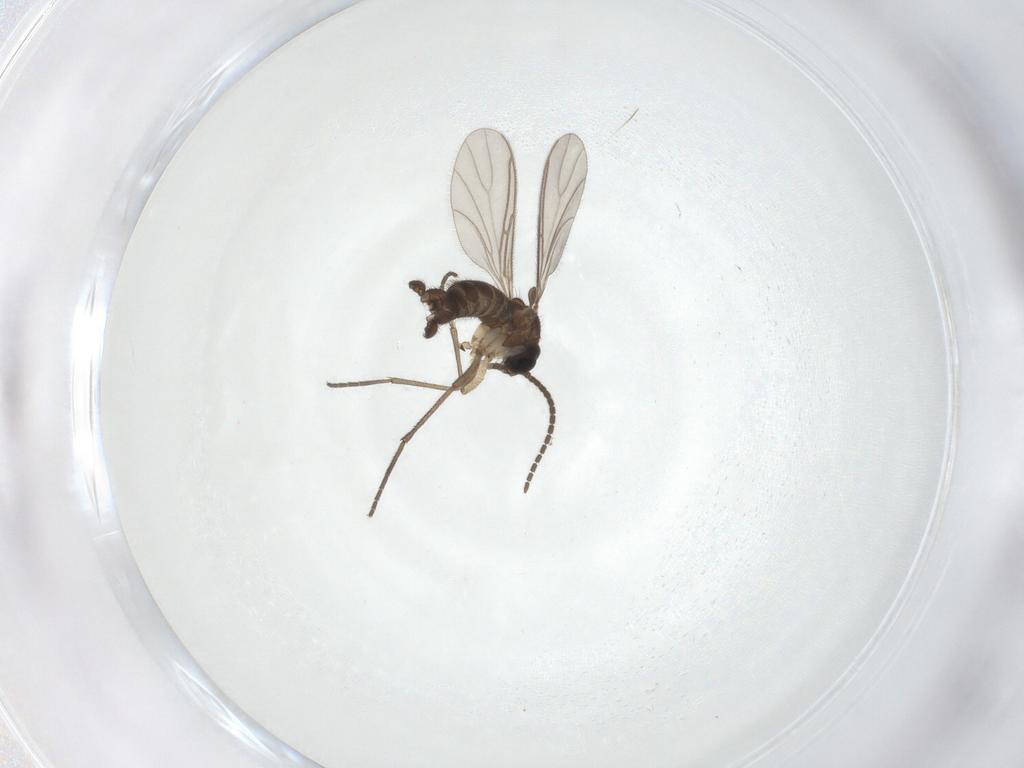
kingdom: Animalia
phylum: Arthropoda
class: Insecta
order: Diptera
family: Sciaridae
